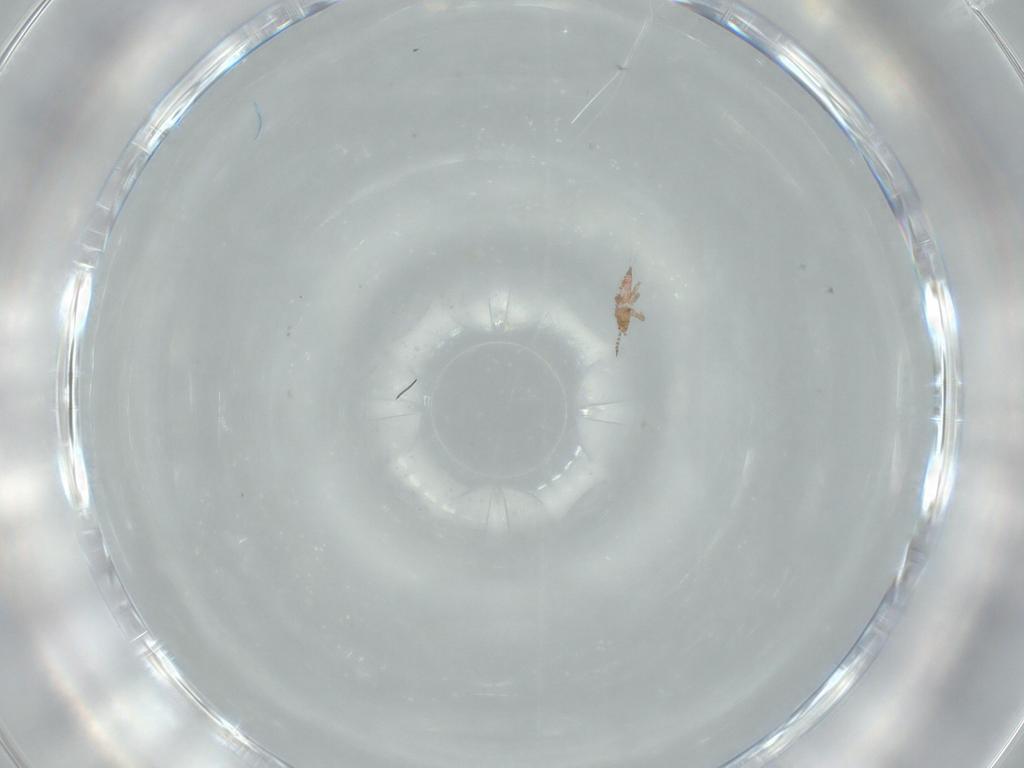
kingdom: Animalia
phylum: Arthropoda
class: Insecta
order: Thysanoptera
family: Phlaeothripidae
